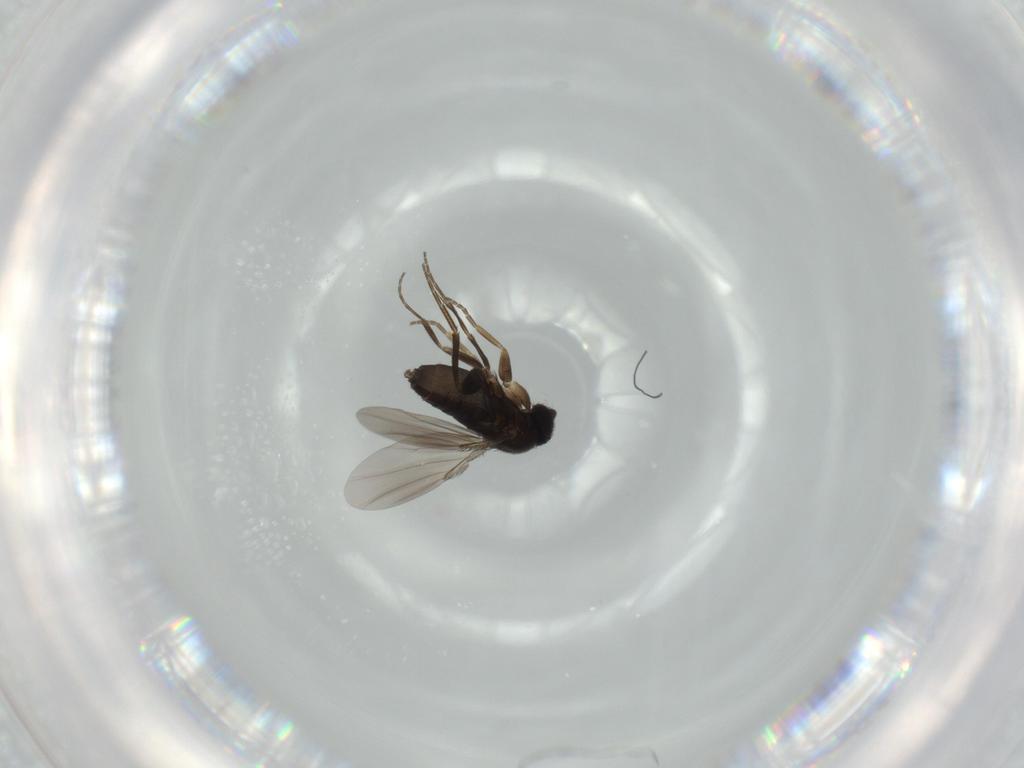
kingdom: Animalia
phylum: Arthropoda
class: Insecta
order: Diptera
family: Phoridae
